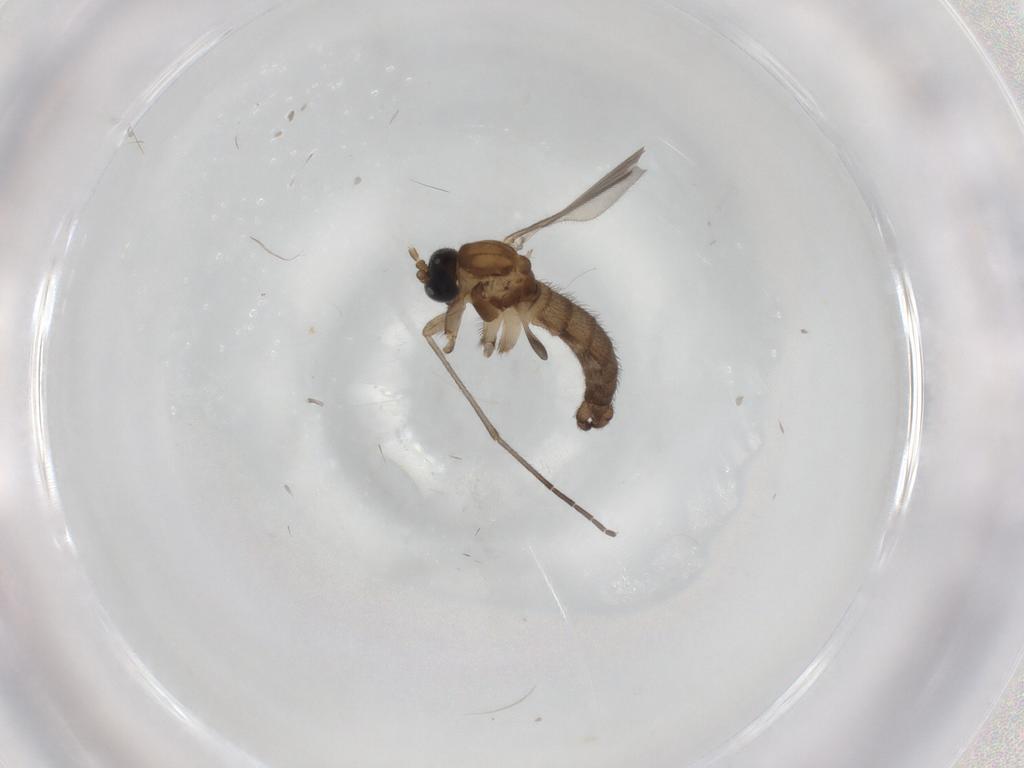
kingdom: Animalia
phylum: Arthropoda
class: Insecta
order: Diptera
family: Sciaridae
